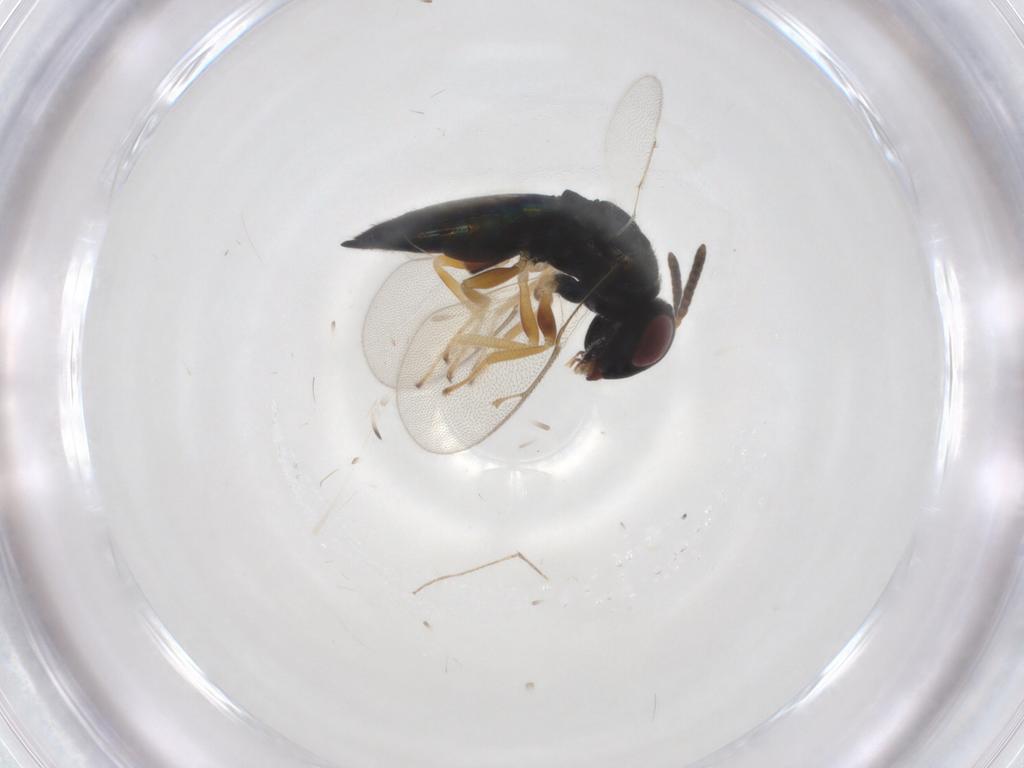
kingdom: Animalia
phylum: Arthropoda
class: Insecta
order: Diptera
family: Ceratopogonidae
